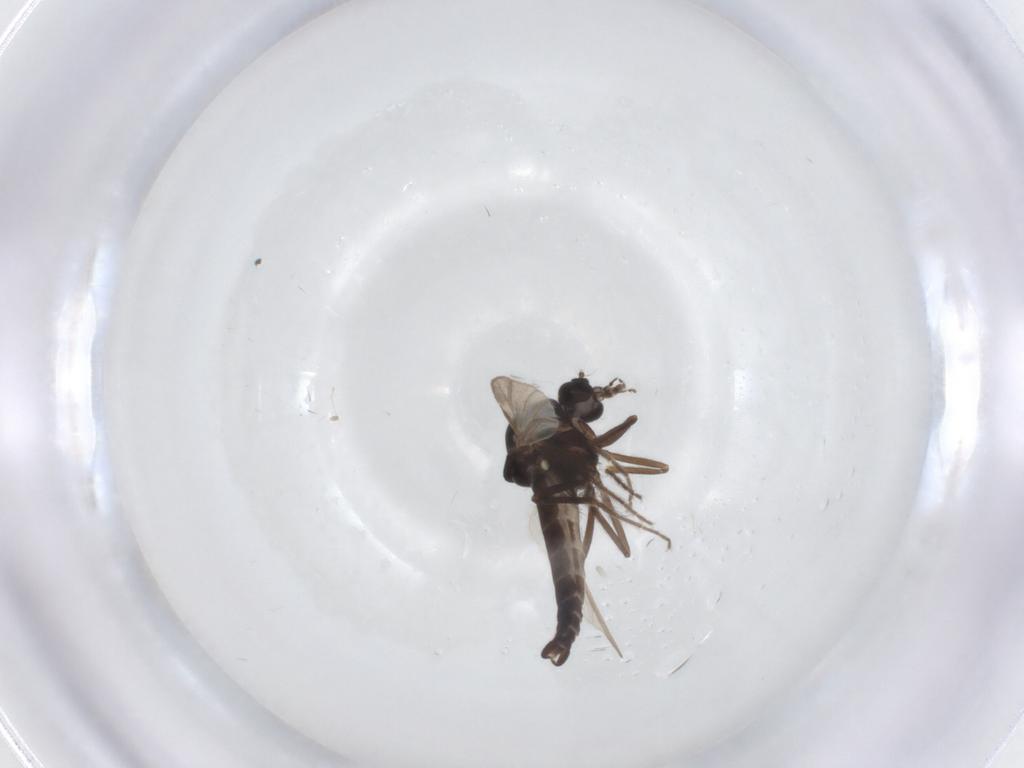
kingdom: Animalia
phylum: Arthropoda
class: Insecta
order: Diptera
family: Ceratopogonidae
